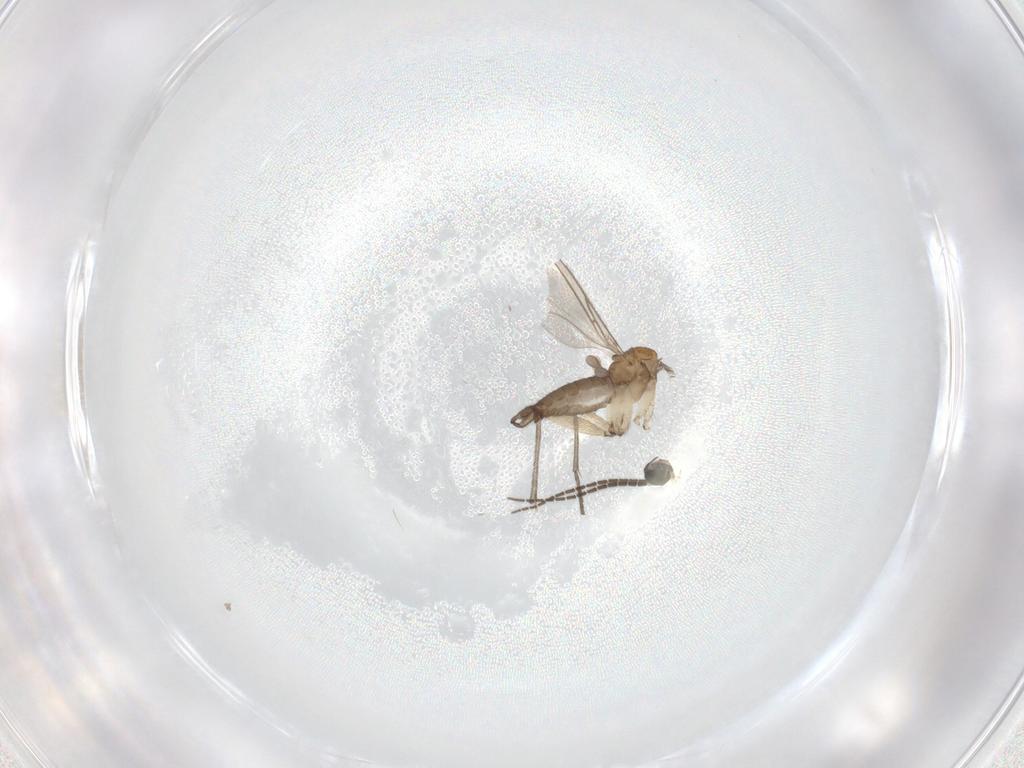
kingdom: Animalia
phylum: Arthropoda
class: Insecta
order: Diptera
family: Sciaridae
